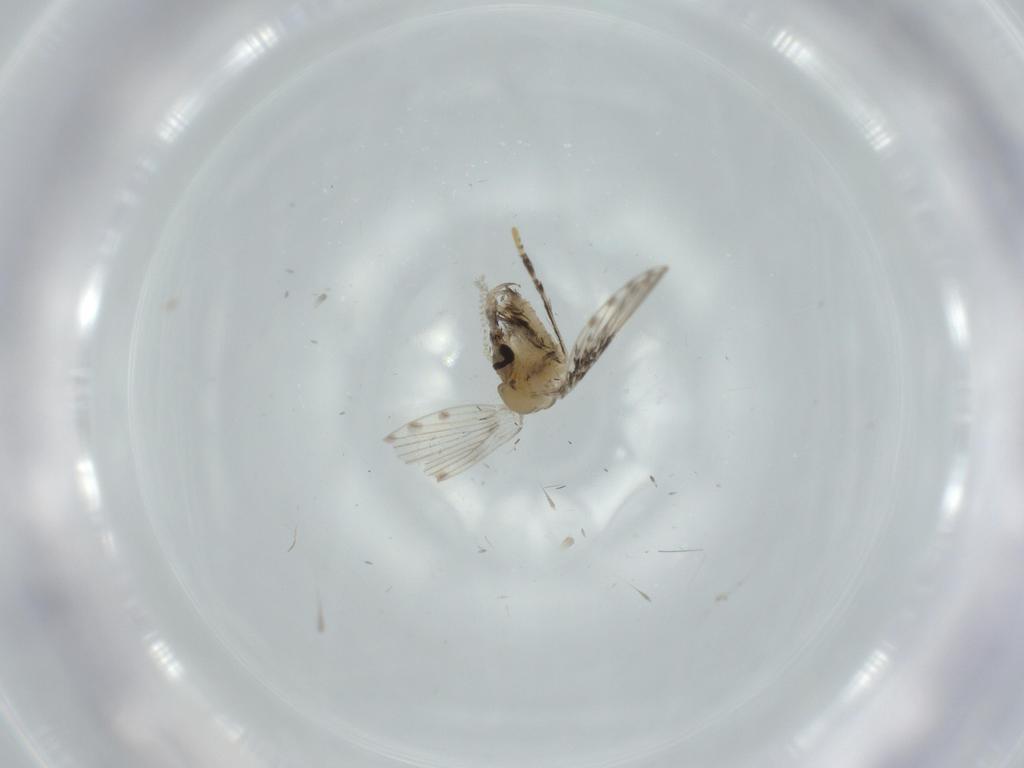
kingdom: Animalia
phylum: Arthropoda
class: Insecta
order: Diptera
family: Psychodidae
